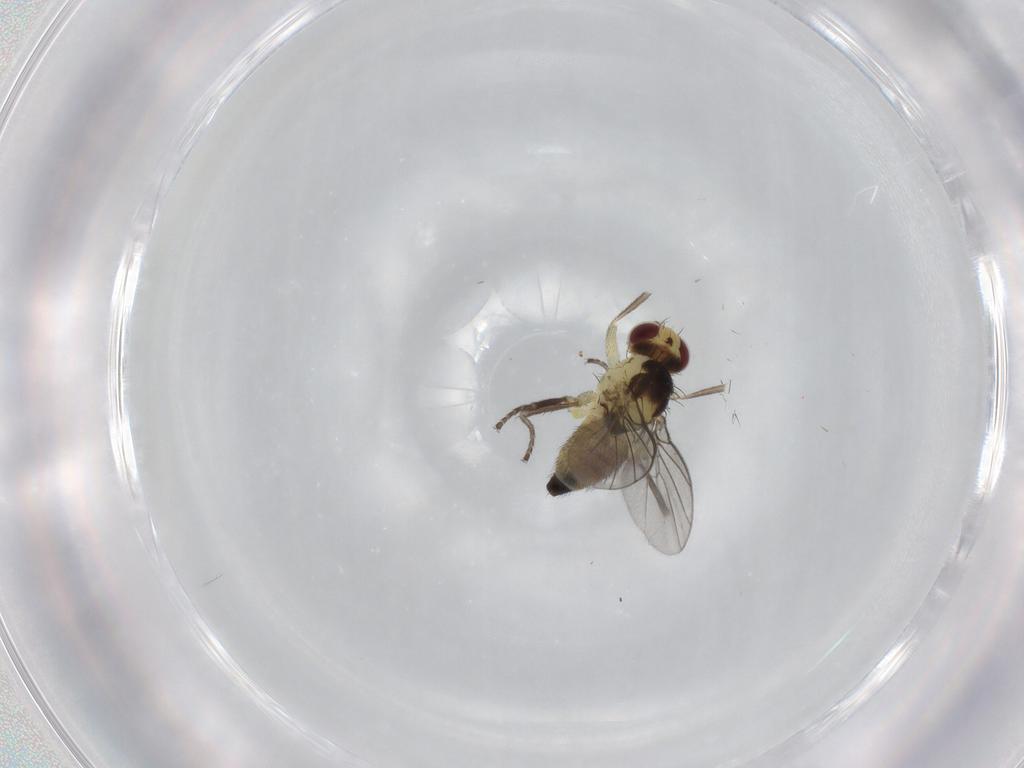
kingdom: Animalia
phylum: Arthropoda
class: Insecta
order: Diptera
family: Agromyzidae
